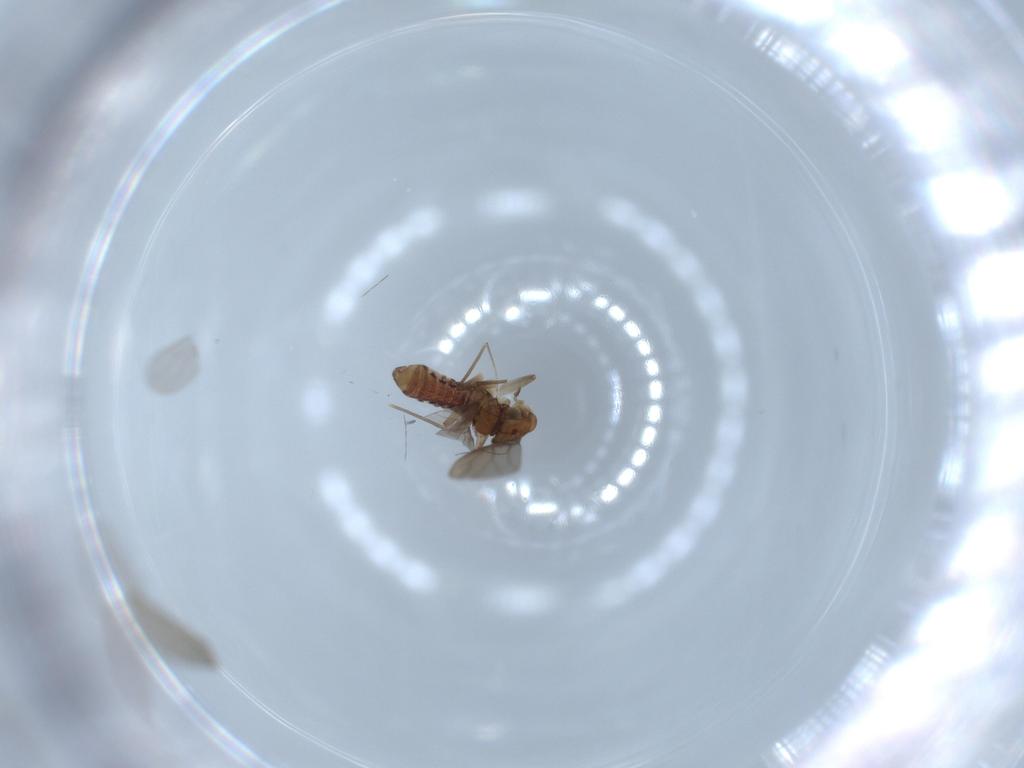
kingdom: Animalia
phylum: Arthropoda
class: Insecta
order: Psocodea
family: Lepidopsocidae
